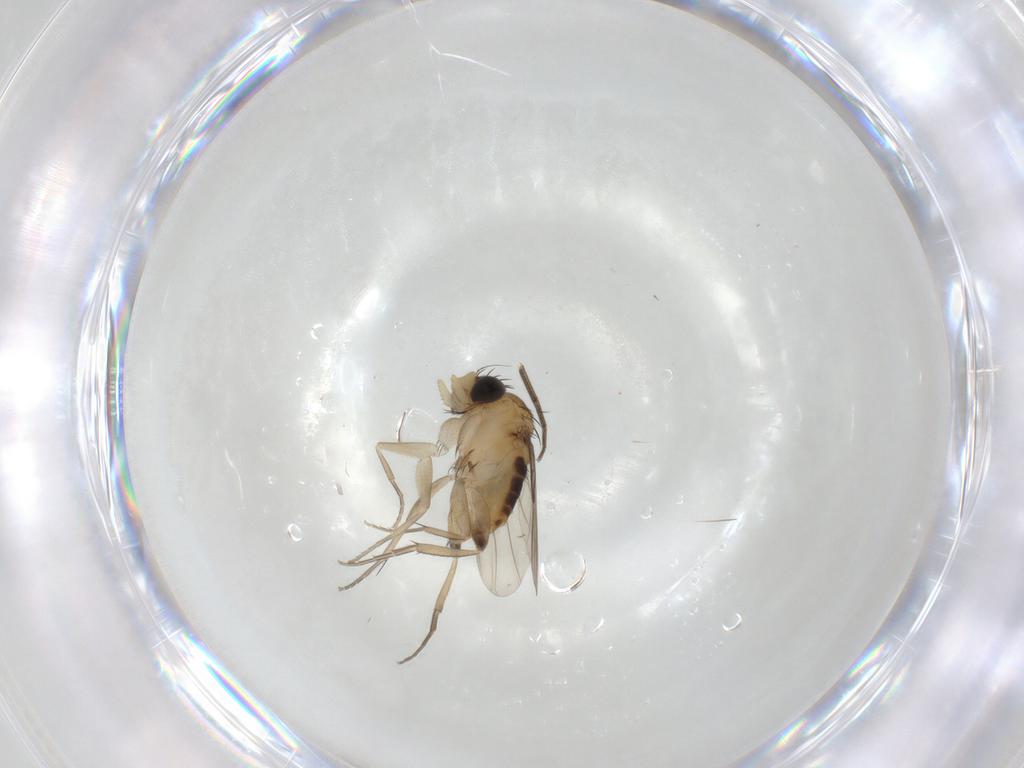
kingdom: Animalia
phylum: Arthropoda
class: Insecta
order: Diptera
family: Phoridae
